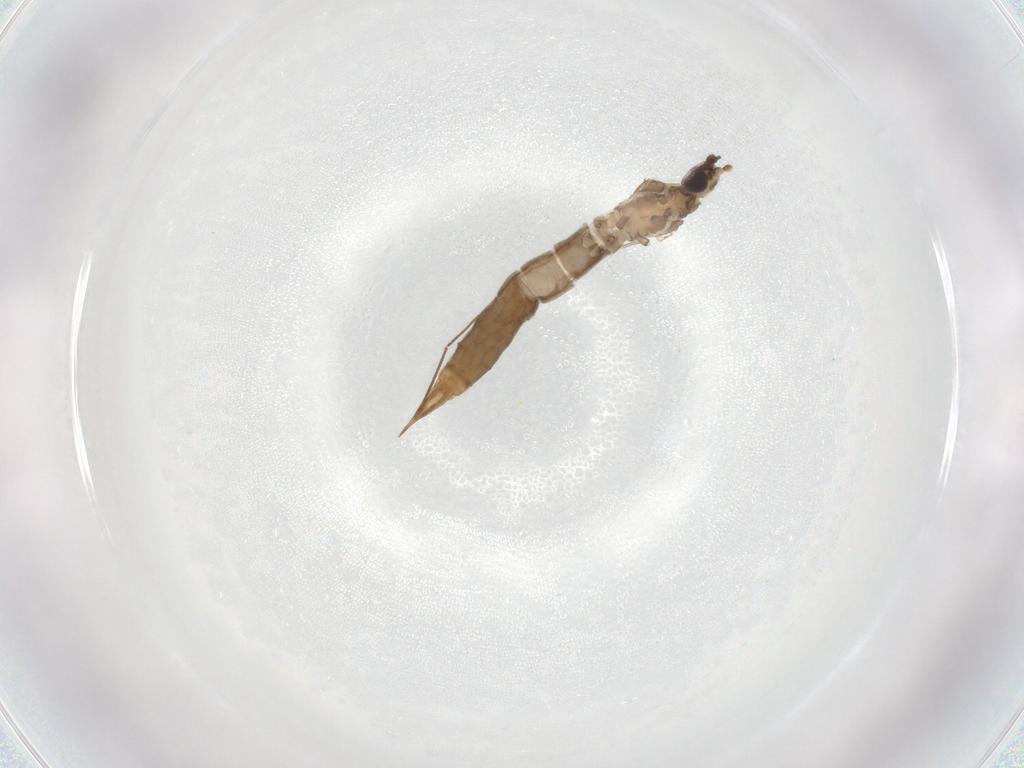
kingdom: Animalia
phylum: Arthropoda
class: Insecta
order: Diptera
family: Limoniidae
